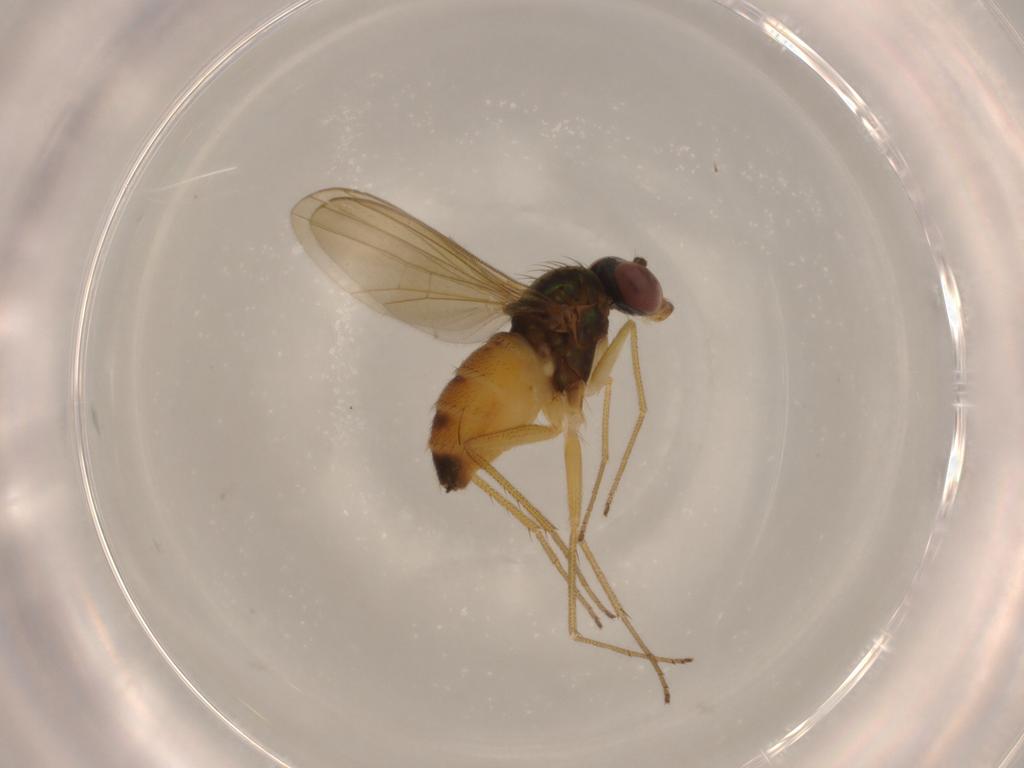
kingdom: Animalia
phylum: Arthropoda
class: Insecta
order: Diptera
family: Dolichopodidae
